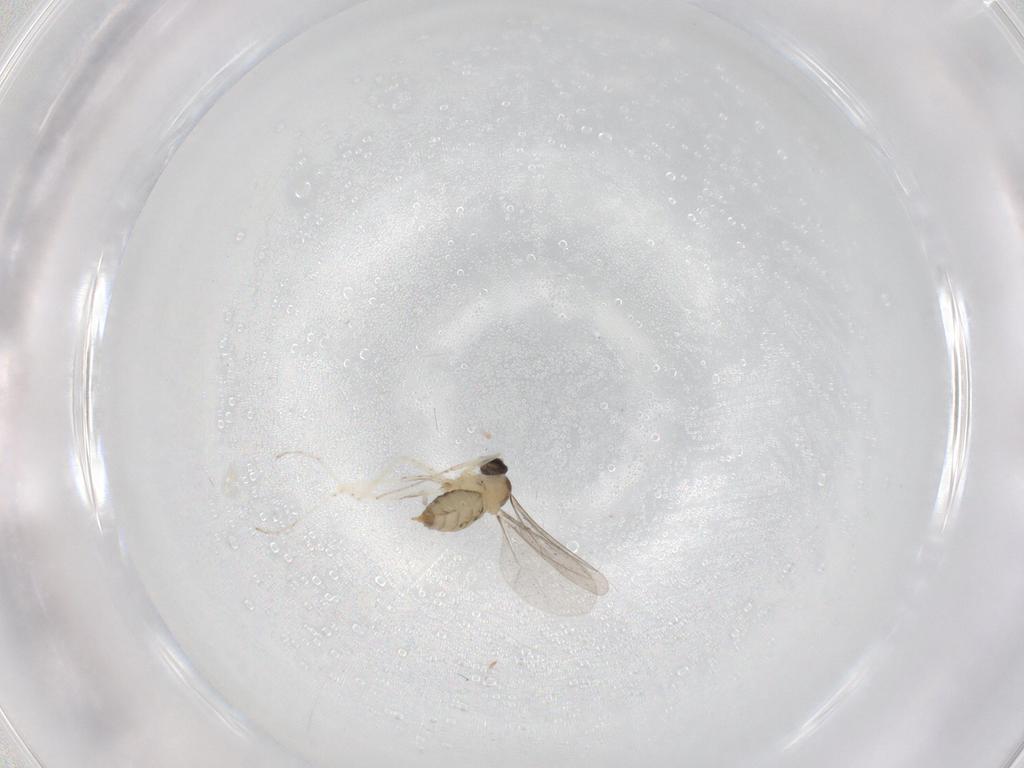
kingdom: Animalia
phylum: Arthropoda
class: Insecta
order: Diptera
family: Cecidomyiidae
